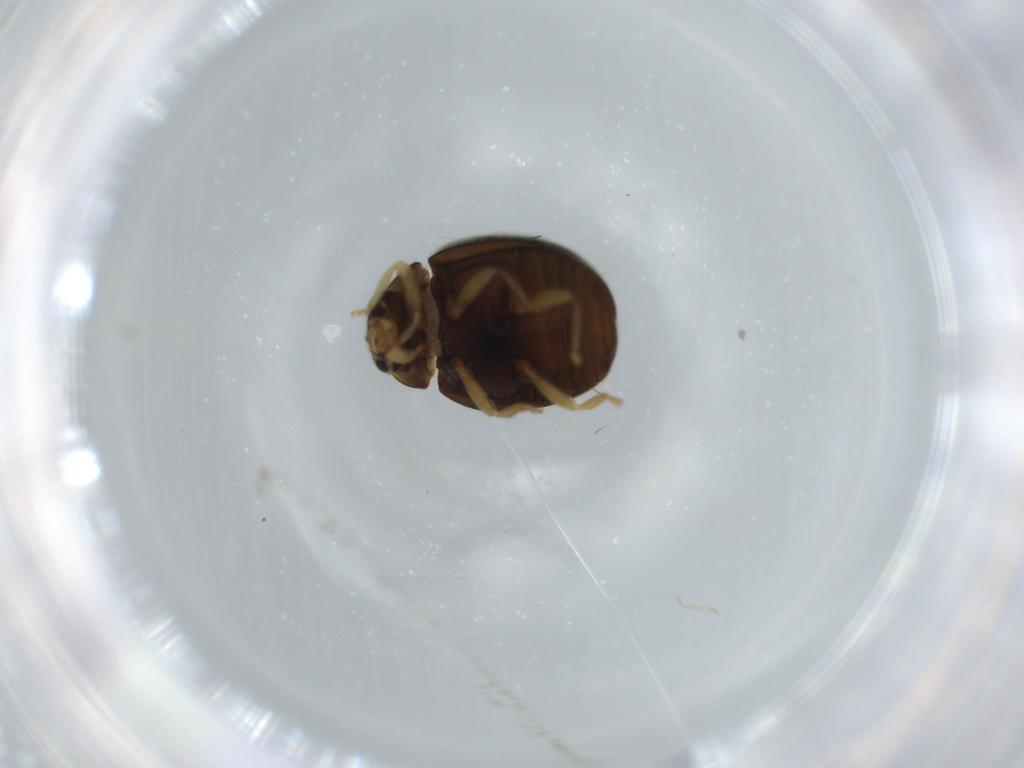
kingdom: Animalia
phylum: Arthropoda
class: Insecta
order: Coleoptera
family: Coccinellidae
